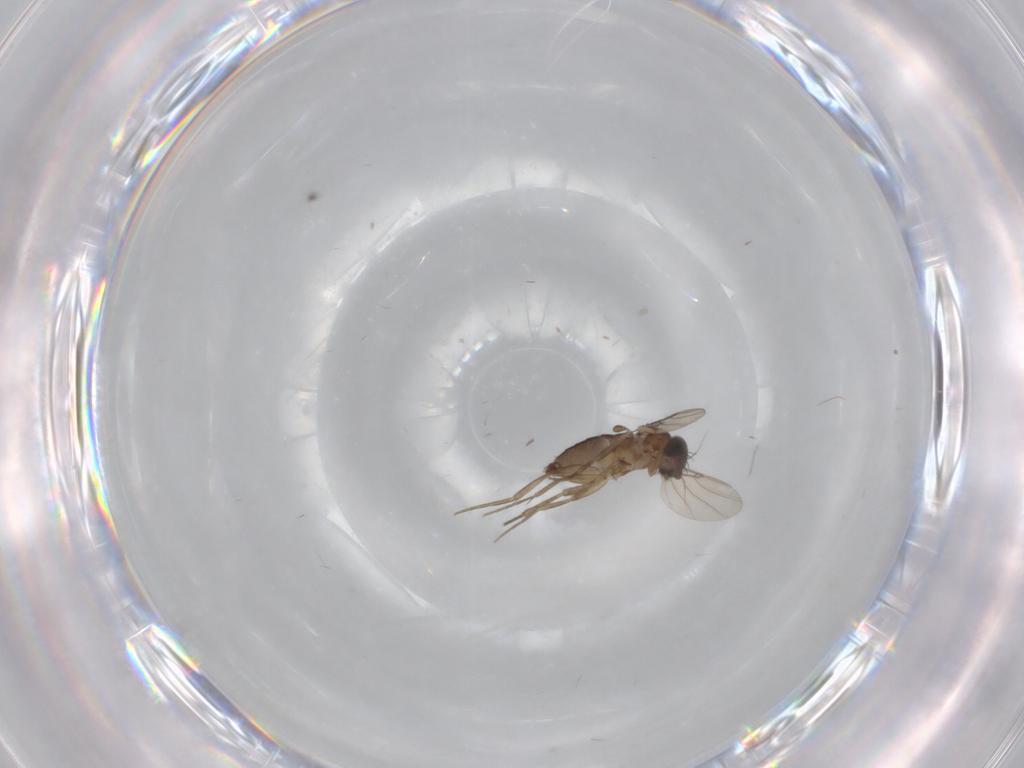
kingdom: Animalia
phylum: Arthropoda
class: Insecta
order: Diptera
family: Phoridae
